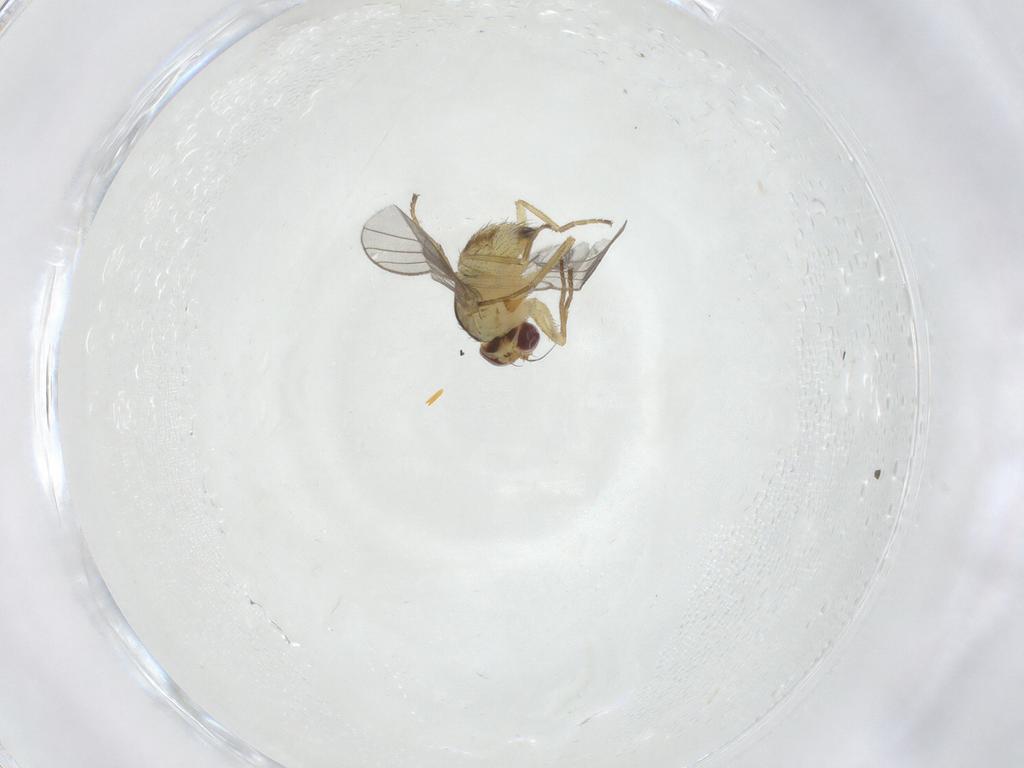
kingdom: Animalia
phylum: Arthropoda
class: Insecta
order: Diptera
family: Agromyzidae
